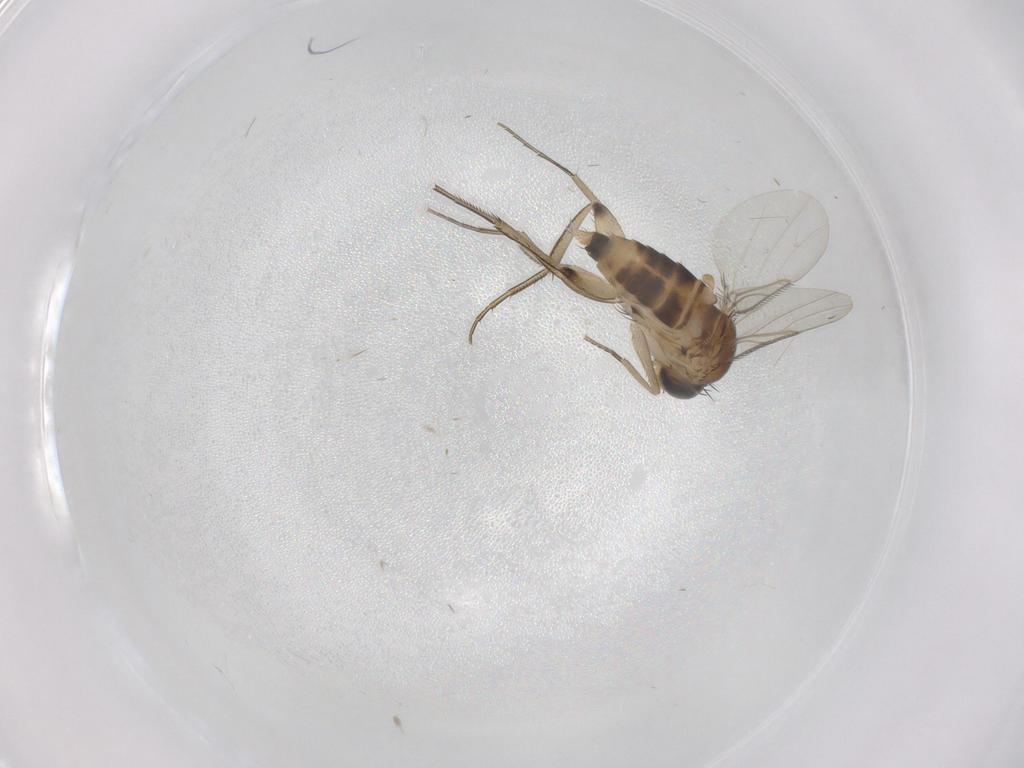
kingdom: Animalia
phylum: Arthropoda
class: Insecta
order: Diptera
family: Phoridae
